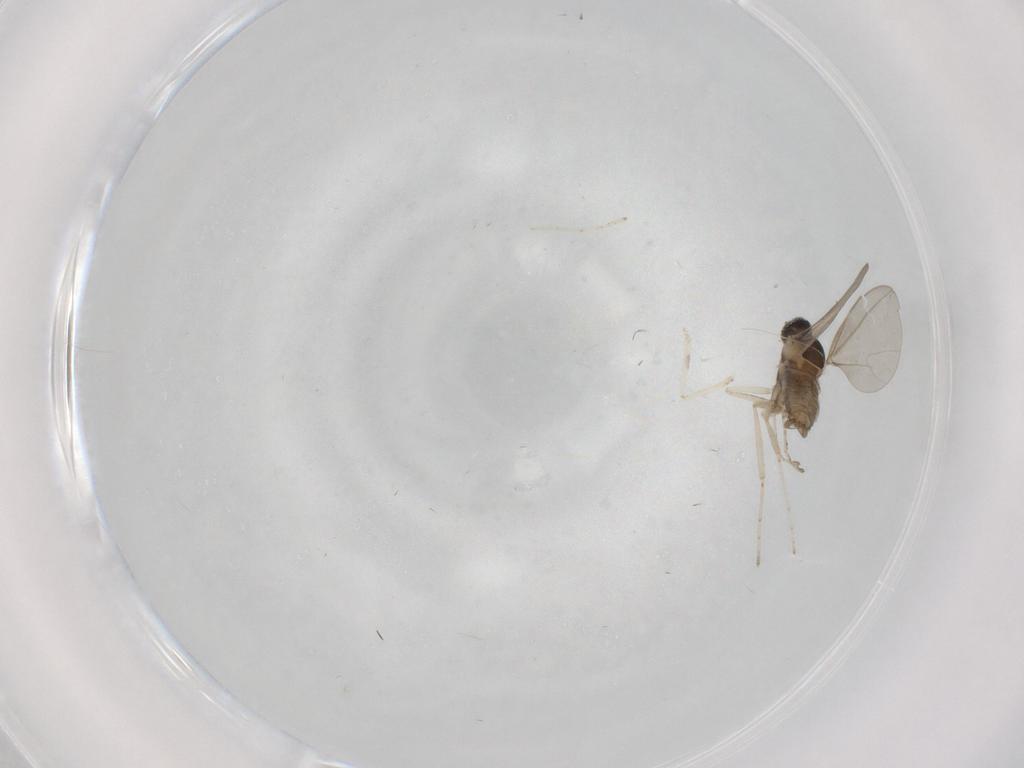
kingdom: Animalia
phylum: Arthropoda
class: Insecta
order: Diptera
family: Cecidomyiidae
